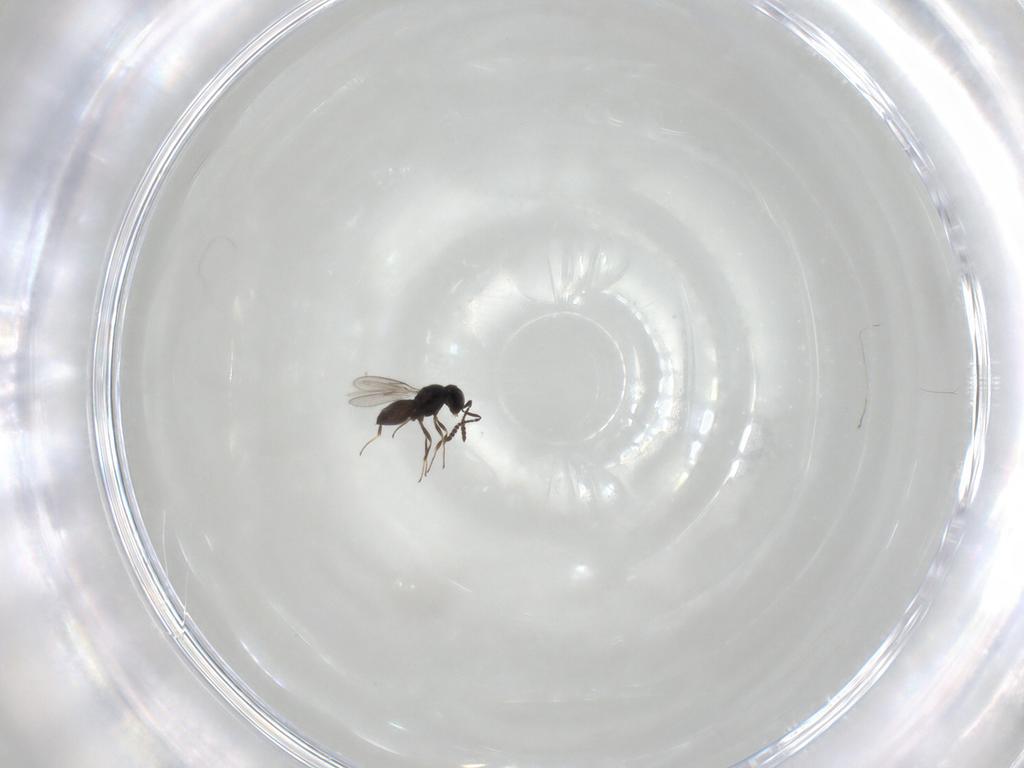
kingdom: Animalia
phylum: Arthropoda
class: Insecta
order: Hymenoptera
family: Scelionidae
